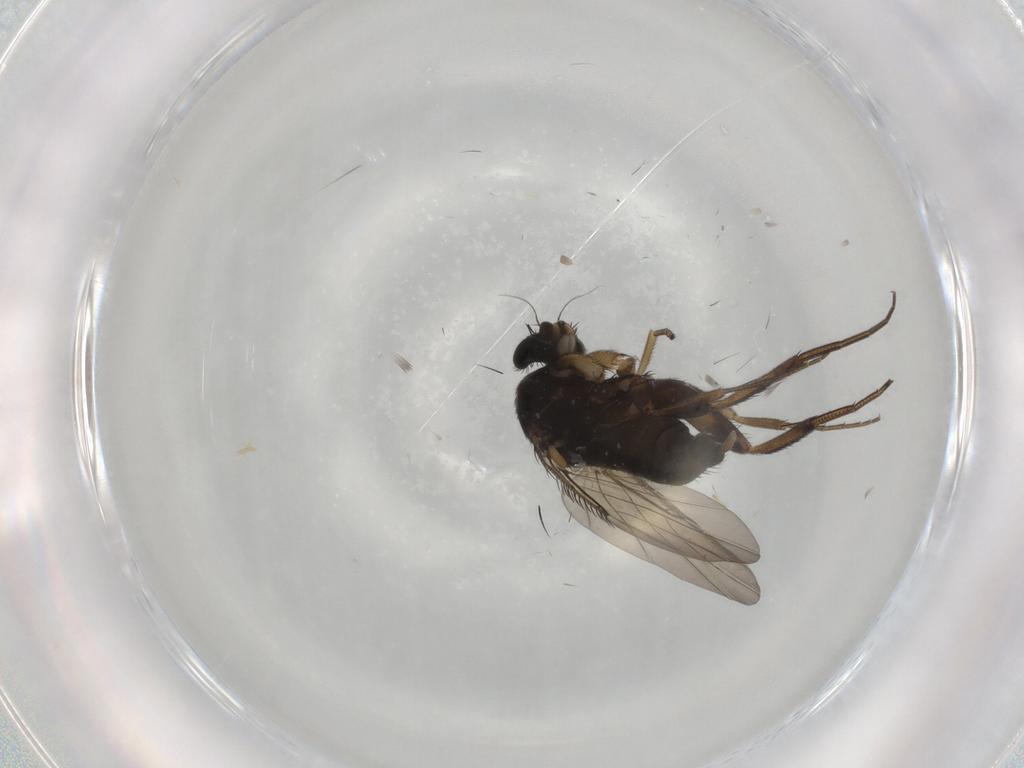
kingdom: Animalia
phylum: Arthropoda
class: Insecta
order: Diptera
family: Phoridae
